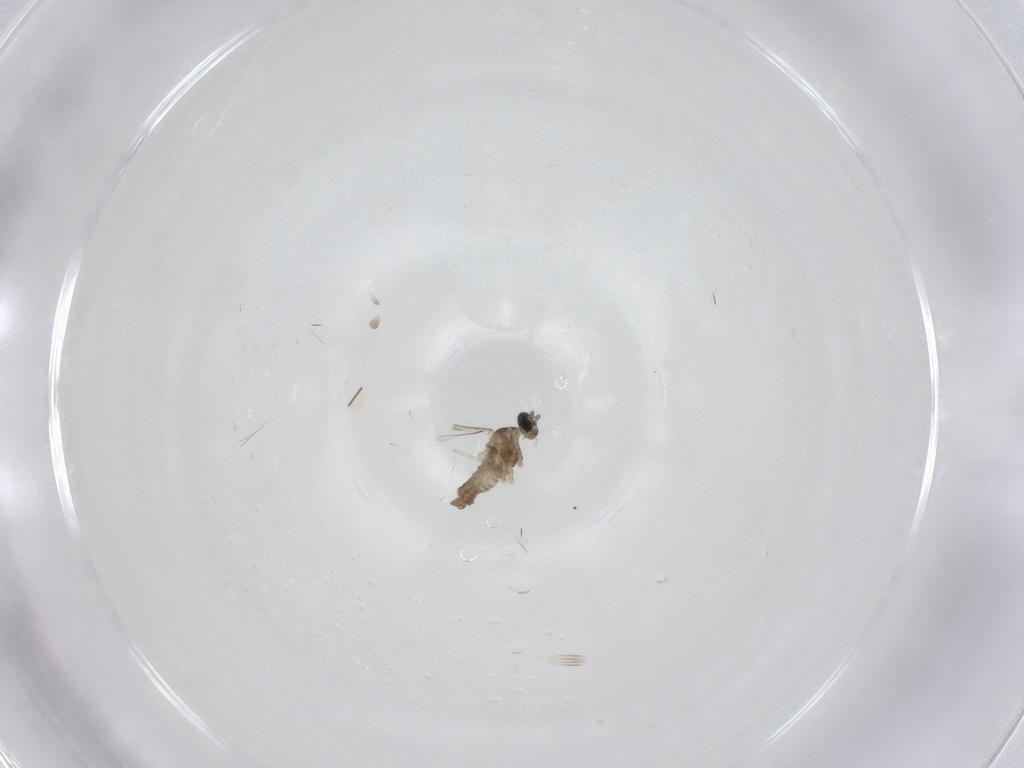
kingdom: Animalia
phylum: Arthropoda
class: Insecta
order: Diptera
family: Cecidomyiidae
